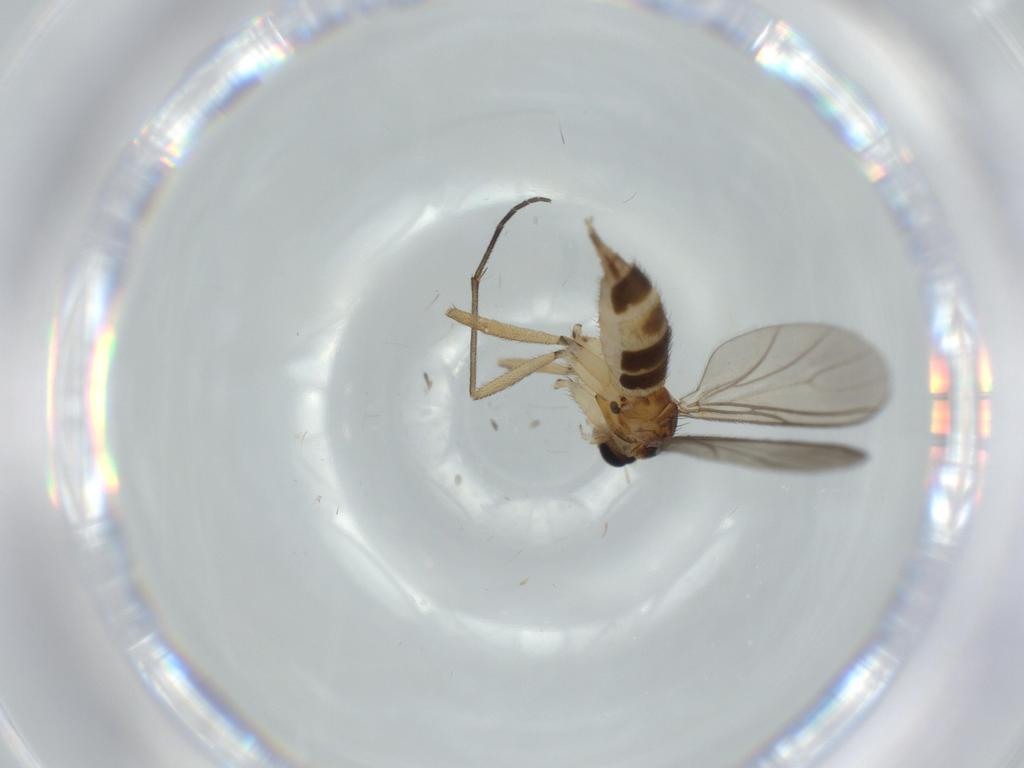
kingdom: Animalia
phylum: Arthropoda
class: Insecta
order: Diptera
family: Sciaridae
